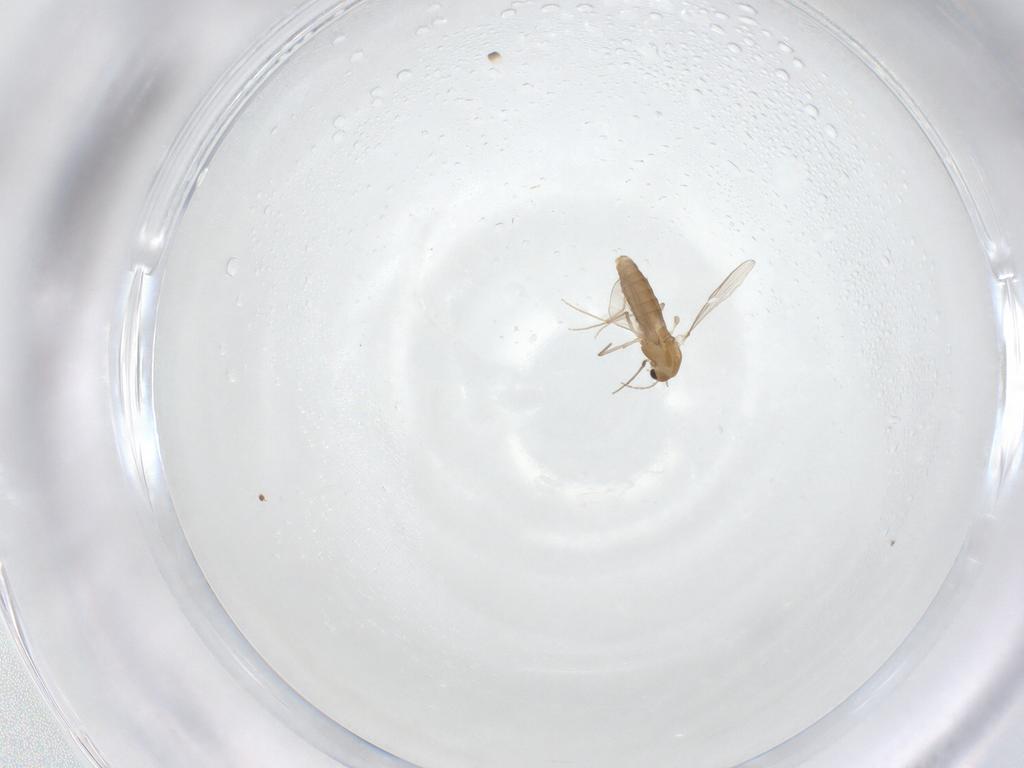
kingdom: Animalia
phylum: Arthropoda
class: Insecta
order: Diptera
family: Chironomidae
